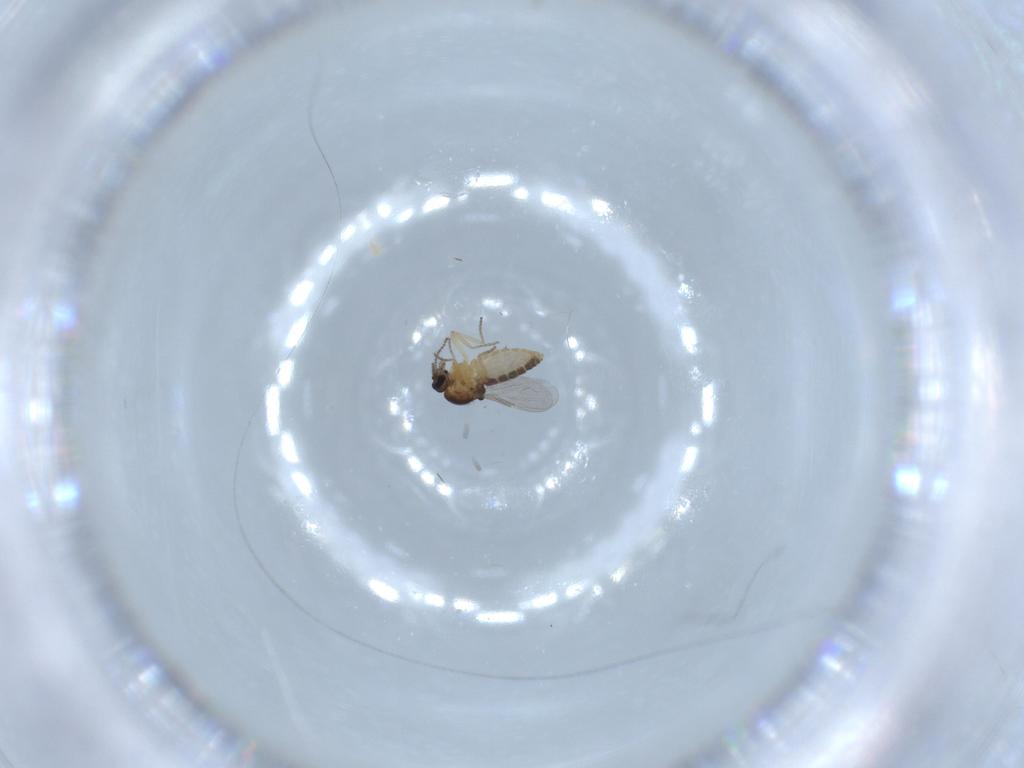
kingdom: Animalia
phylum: Arthropoda
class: Insecta
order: Diptera
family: Ceratopogonidae
